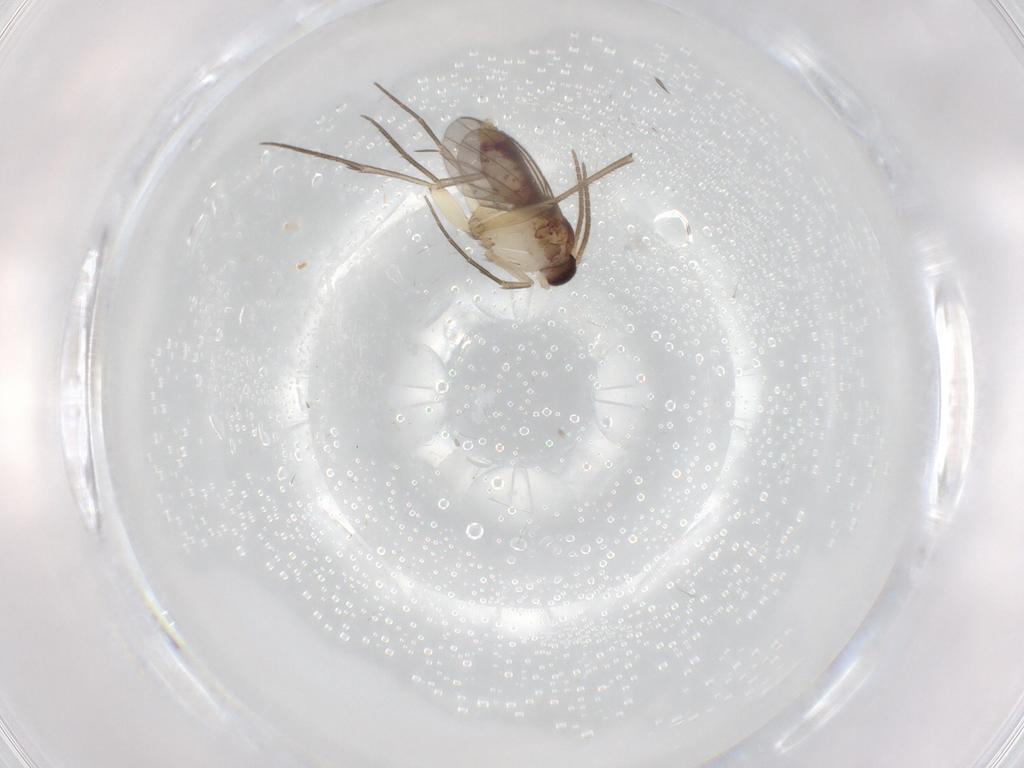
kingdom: Animalia
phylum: Arthropoda
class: Insecta
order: Diptera
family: Mycetophilidae
